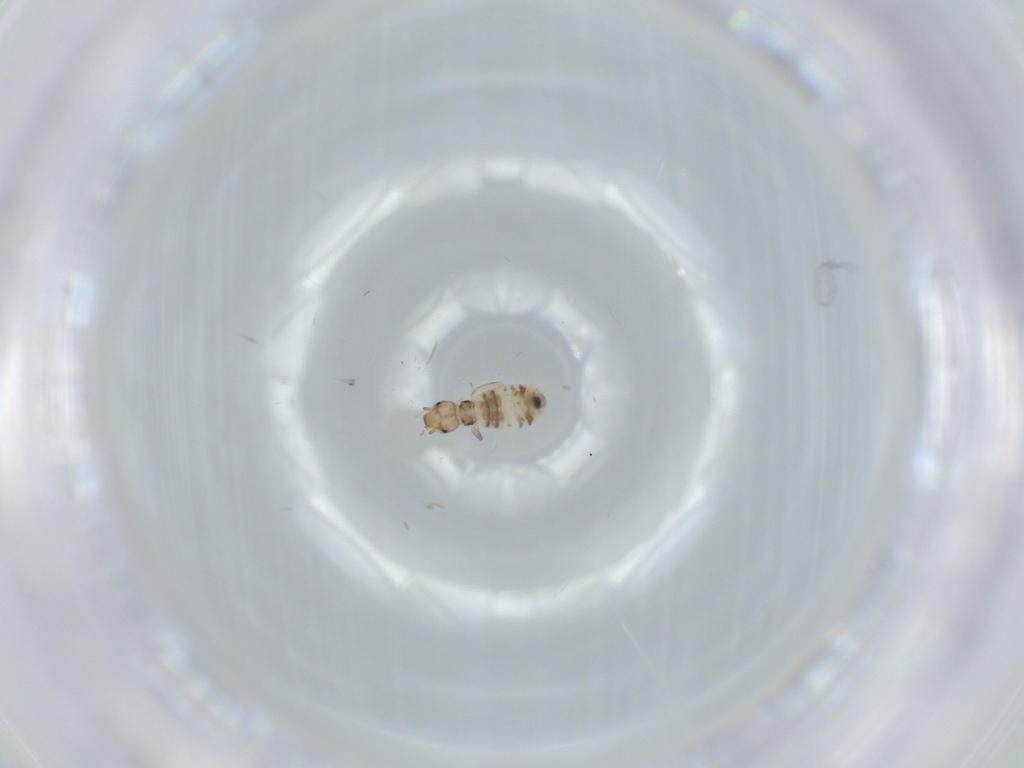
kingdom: Animalia
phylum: Arthropoda
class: Insecta
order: Psocodea
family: Liposcelididae
